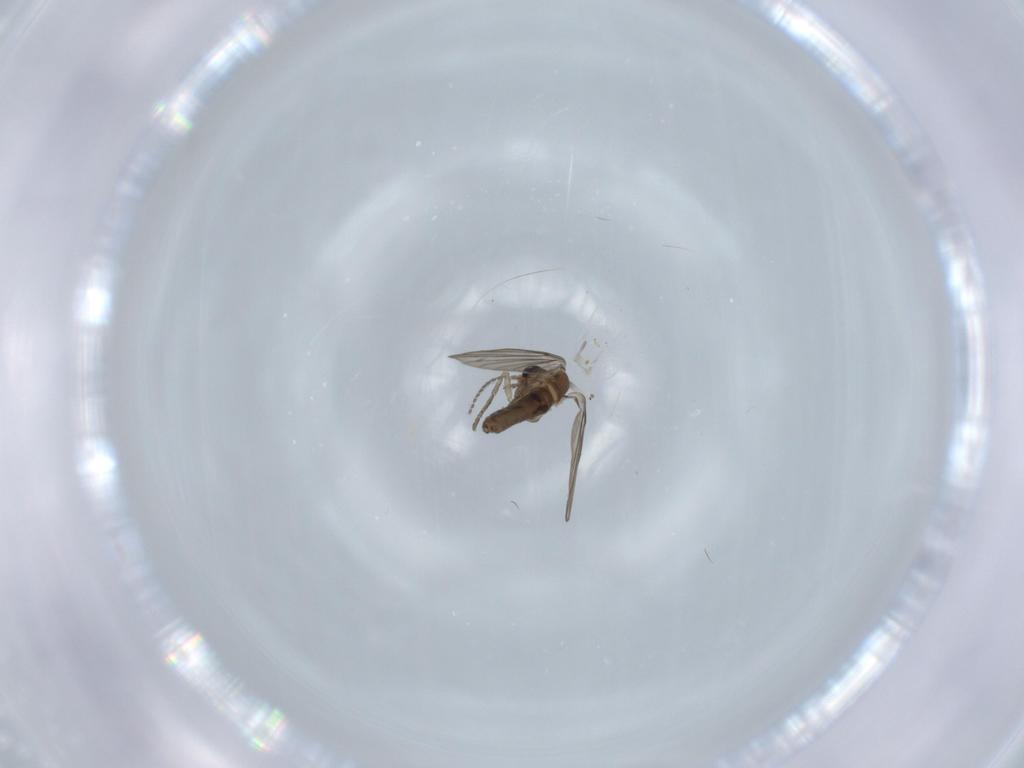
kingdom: Animalia
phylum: Arthropoda
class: Insecta
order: Diptera
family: Psychodidae
